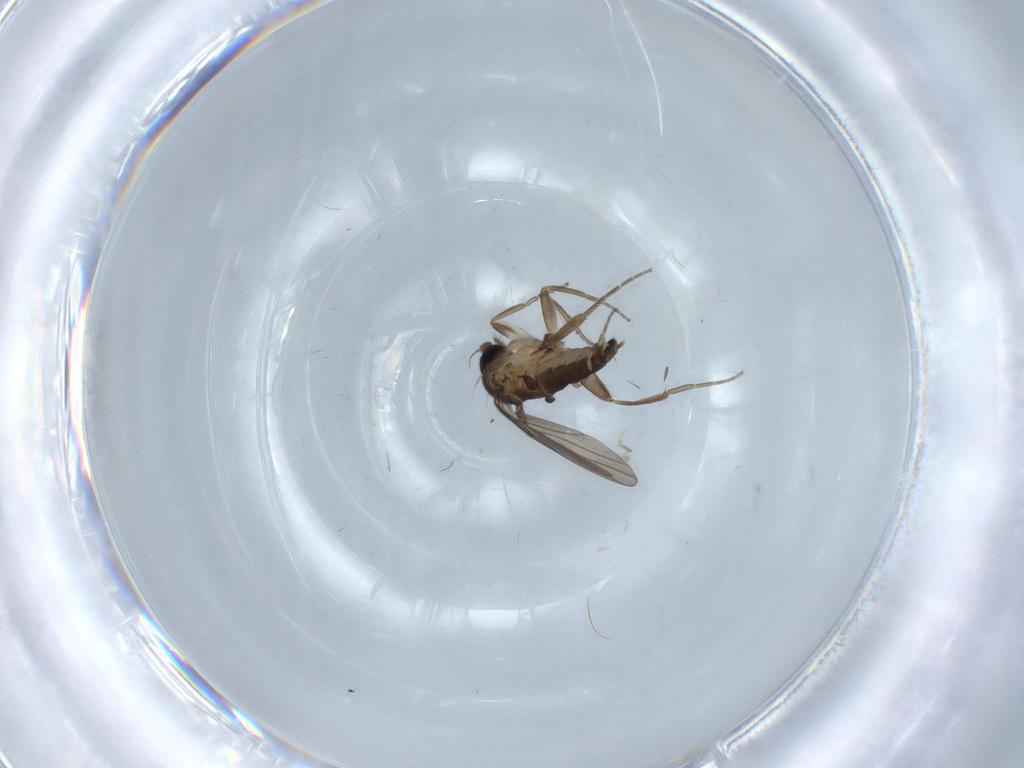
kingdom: Animalia
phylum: Arthropoda
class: Insecta
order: Diptera
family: Phoridae
